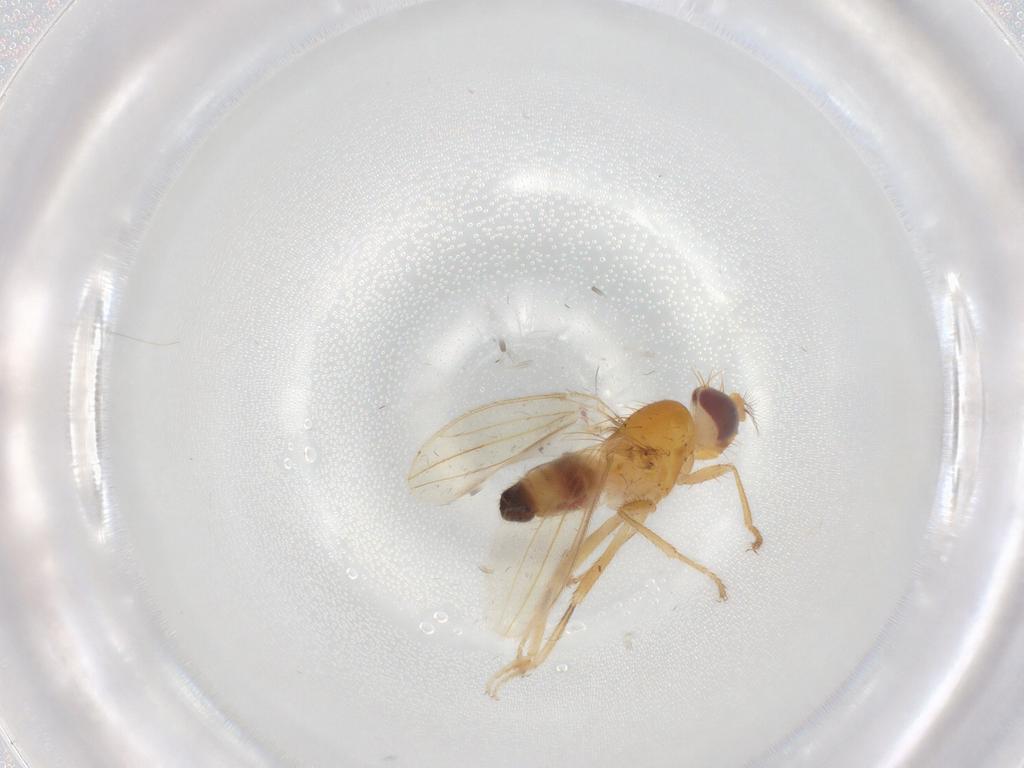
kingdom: Animalia
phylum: Arthropoda
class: Insecta
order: Diptera
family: Periscelididae
